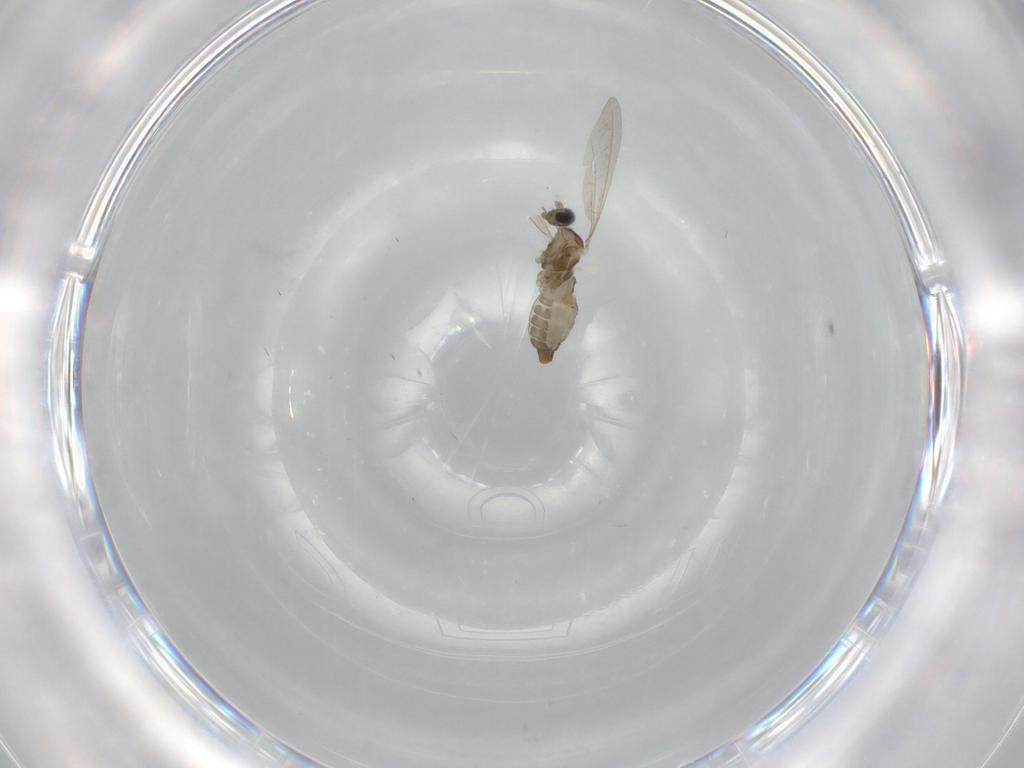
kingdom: Animalia
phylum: Arthropoda
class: Insecta
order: Diptera
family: Cecidomyiidae
